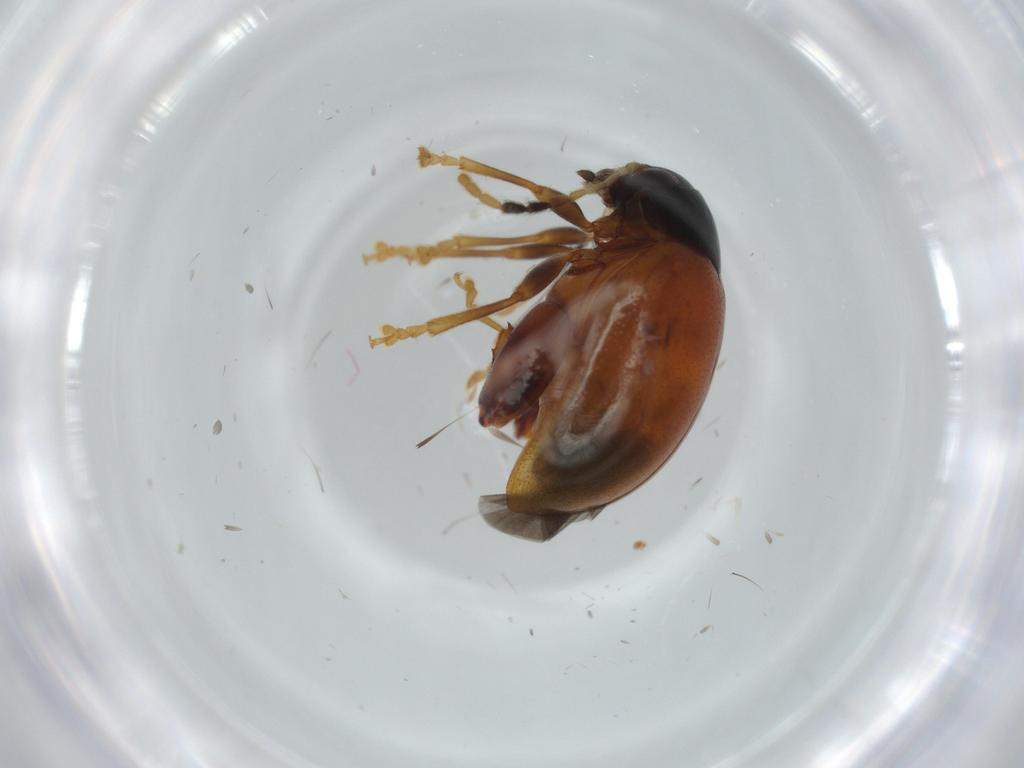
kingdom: Animalia
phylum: Arthropoda
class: Insecta
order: Coleoptera
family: Chrysomelidae
